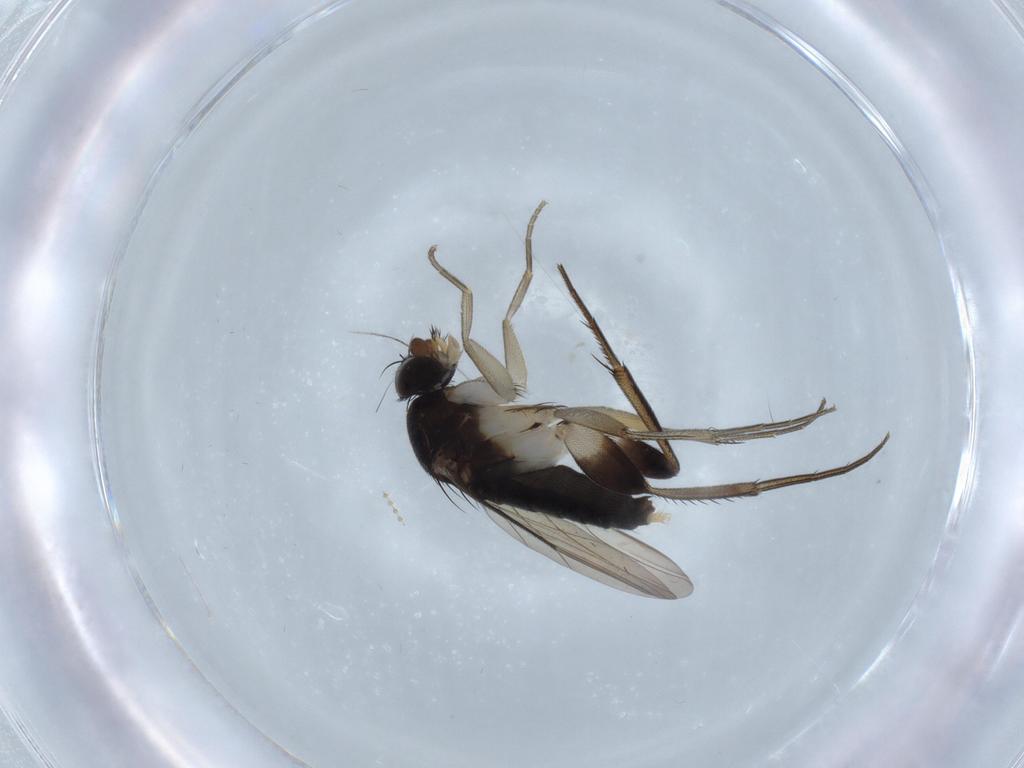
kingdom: Animalia
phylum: Arthropoda
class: Insecta
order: Diptera
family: Phoridae
